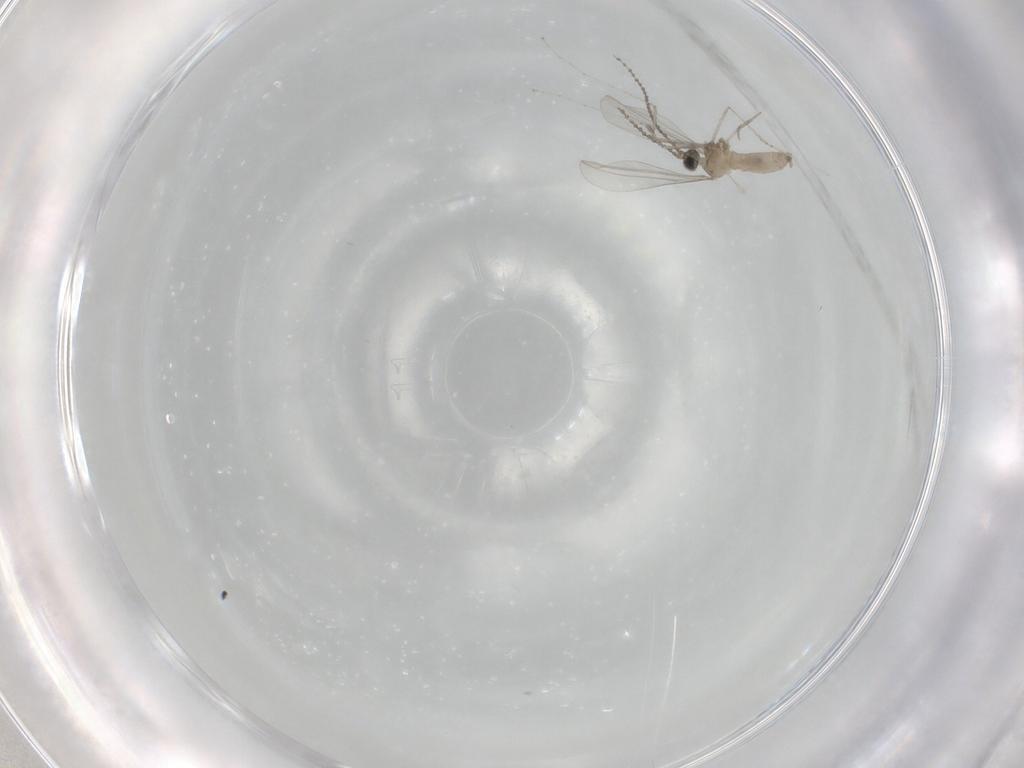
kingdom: Animalia
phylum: Arthropoda
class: Insecta
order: Diptera
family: Cecidomyiidae
